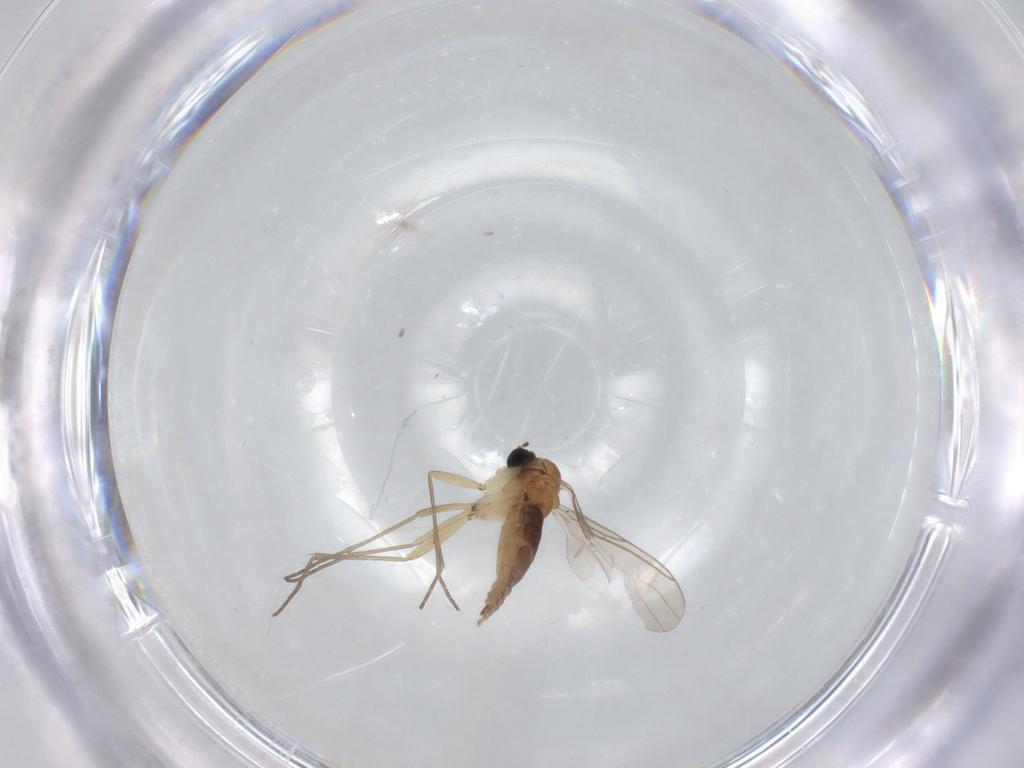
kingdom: Animalia
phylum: Arthropoda
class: Insecta
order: Diptera
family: Sciaridae
